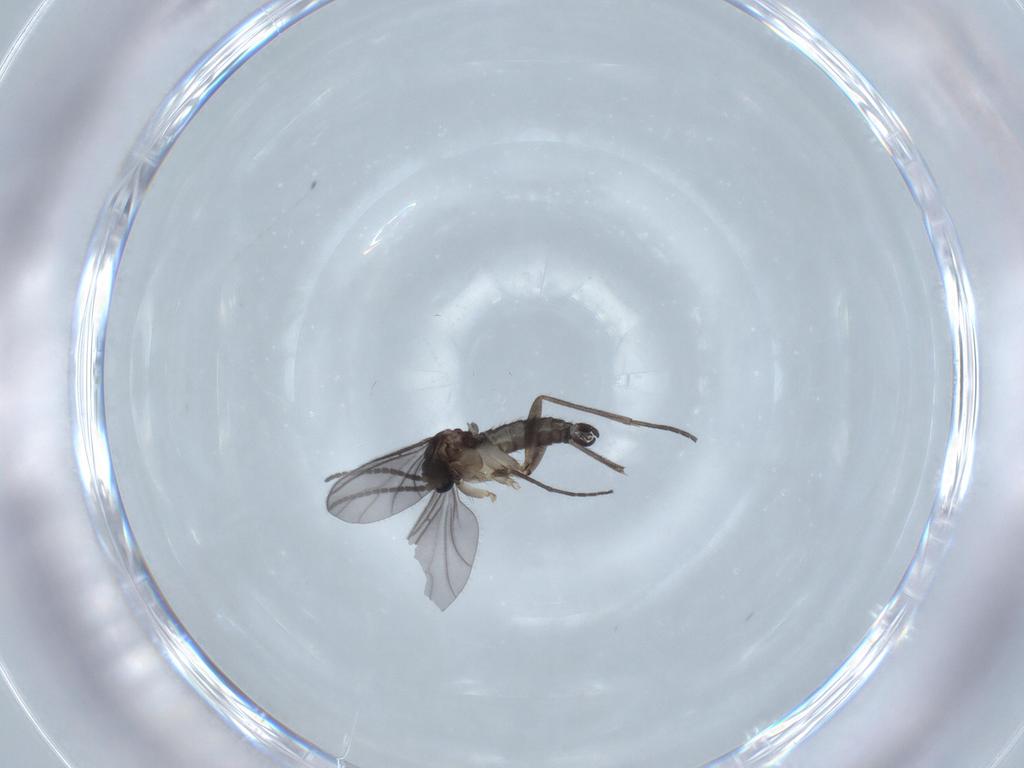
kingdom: Animalia
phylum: Arthropoda
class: Insecta
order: Diptera
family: Sciaridae
